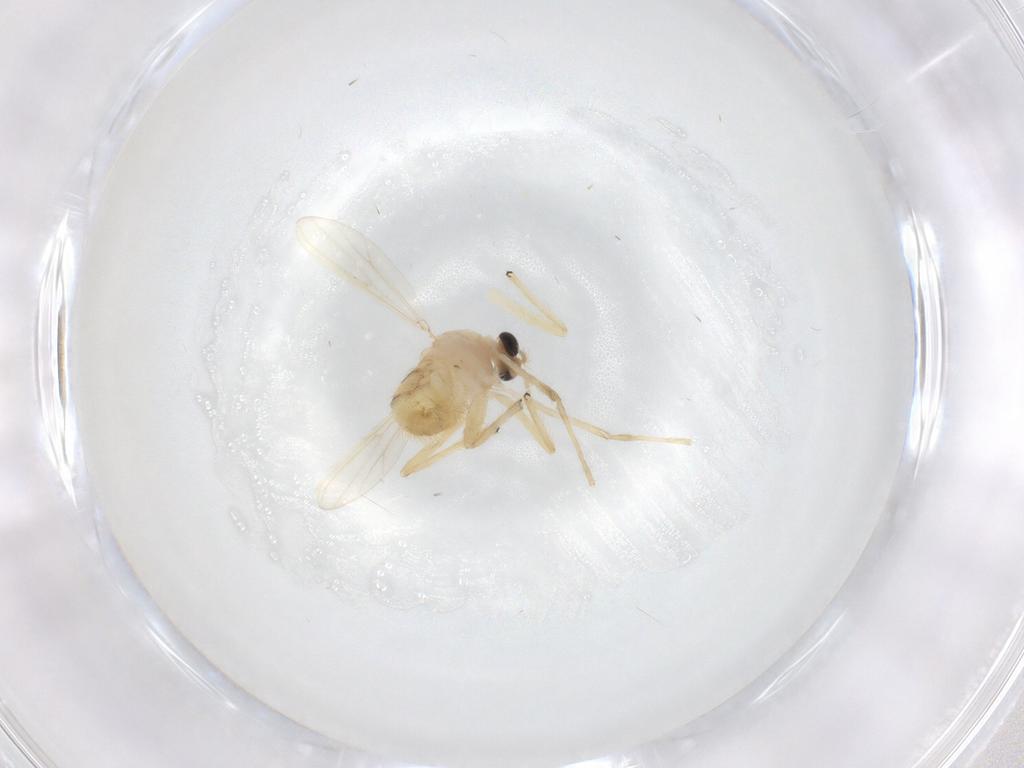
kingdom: Animalia
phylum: Arthropoda
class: Insecta
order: Diptera
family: Chironomidae
